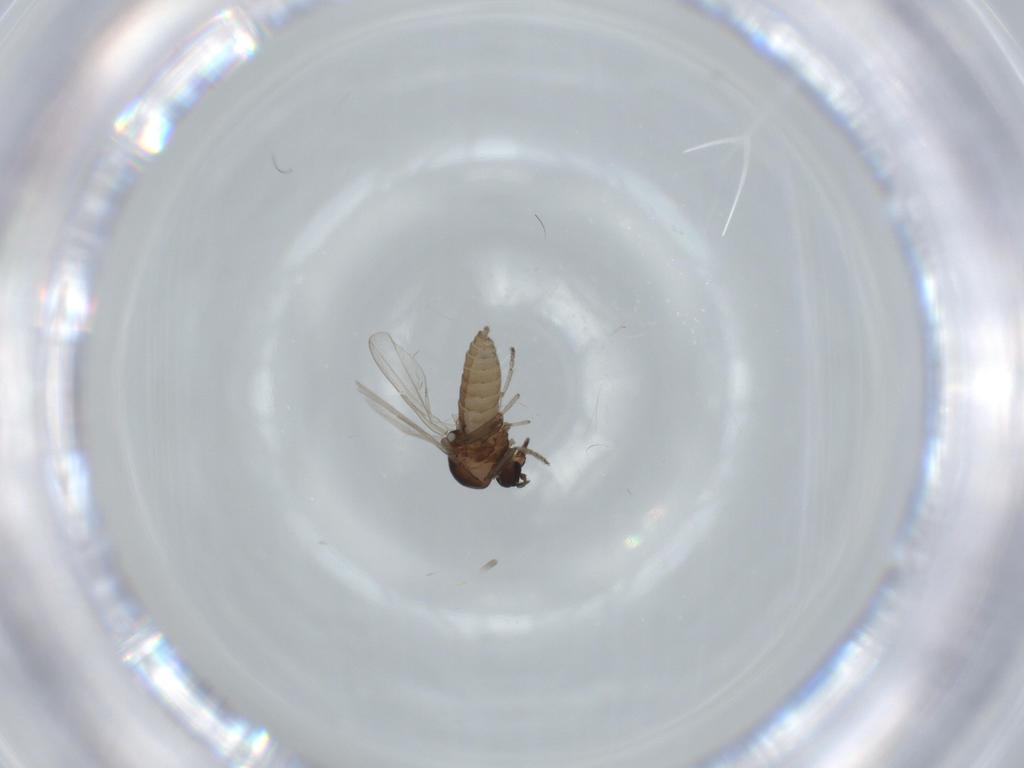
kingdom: Animalia
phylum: Arthropoda
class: Insecta
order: Diptera
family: Ceratopogonidae
